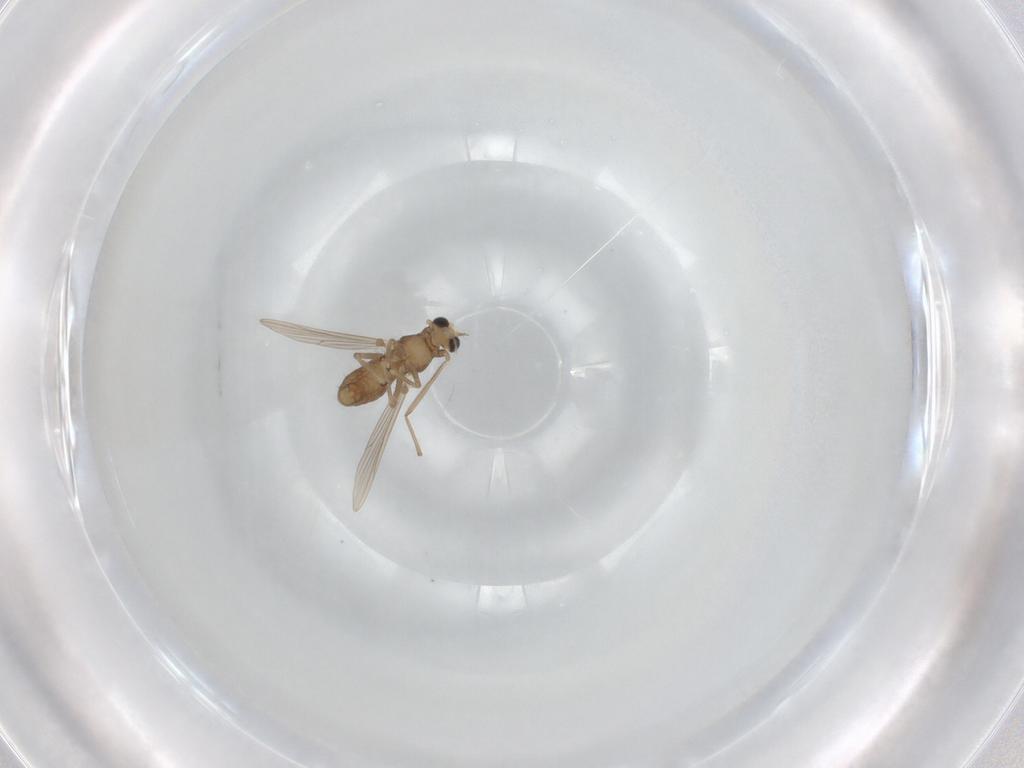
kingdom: Animalia
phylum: Arthropoda
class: Insecta
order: Diptera
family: Chironomidae
